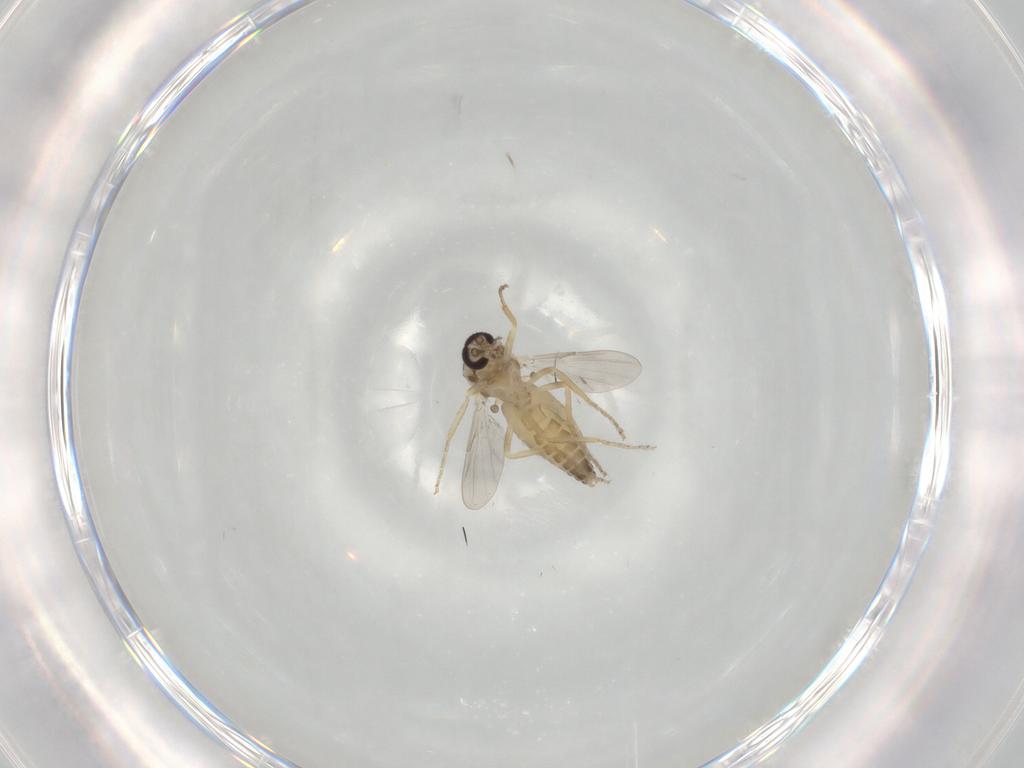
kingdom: Animalia
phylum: Arthropoda
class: Insecta
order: Diptera
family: Ceratopogonidae
